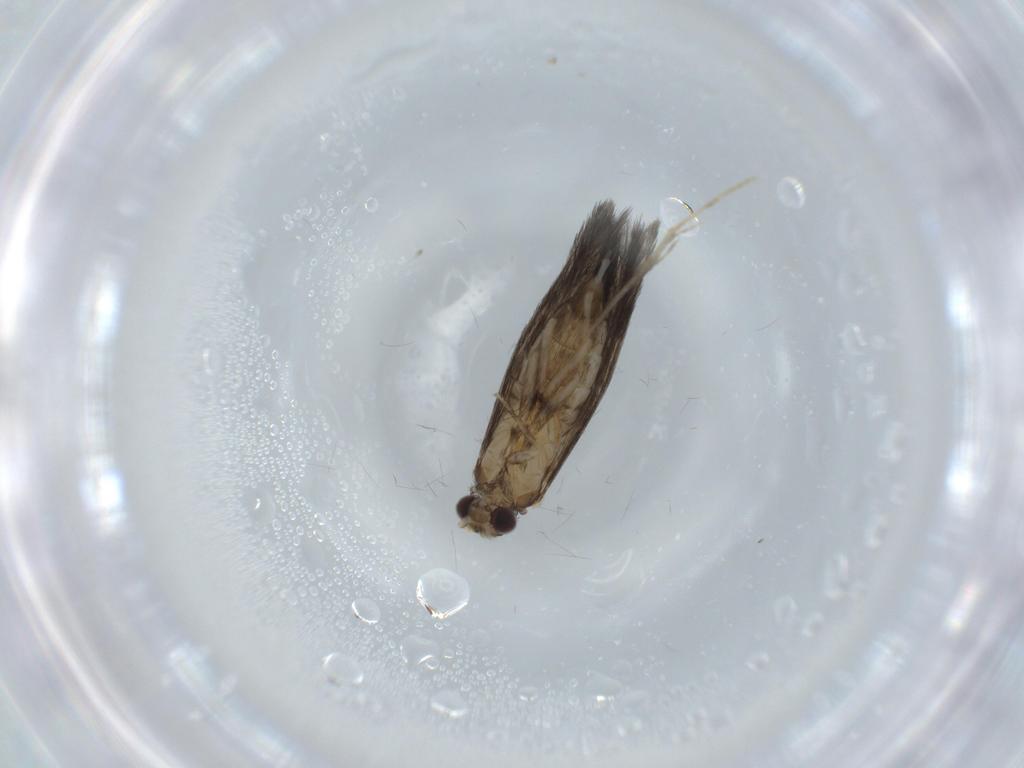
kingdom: Animalia
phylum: Arthropoda
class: Insecta
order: Trichoptera
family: Hydroptilidae
